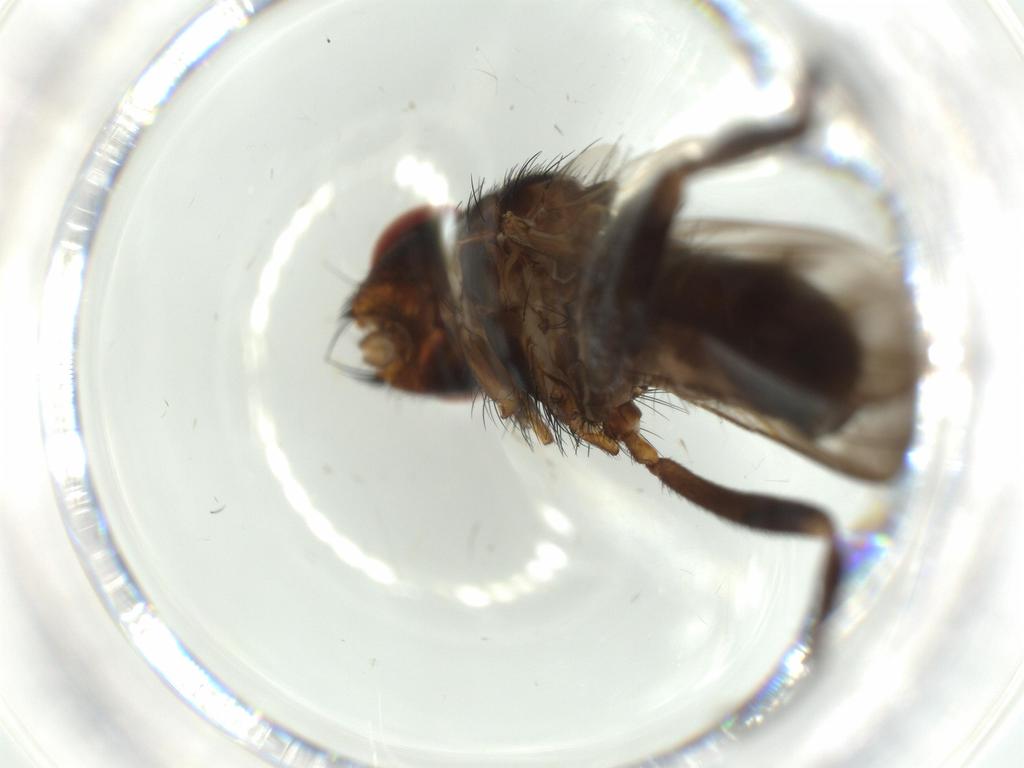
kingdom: Animalia
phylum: Arthropoda
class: Insecta
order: Diptera
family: Calliphoridae
